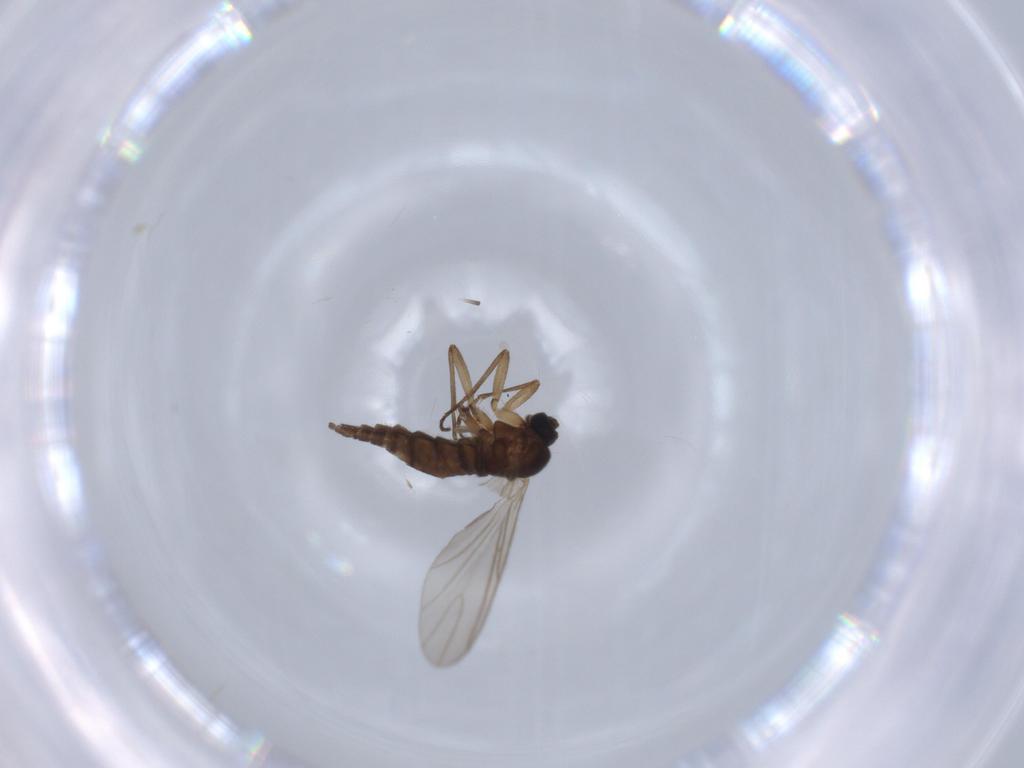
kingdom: Animalia
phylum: Arthropoda
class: Insecta
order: Diptera
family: Sciaridae
